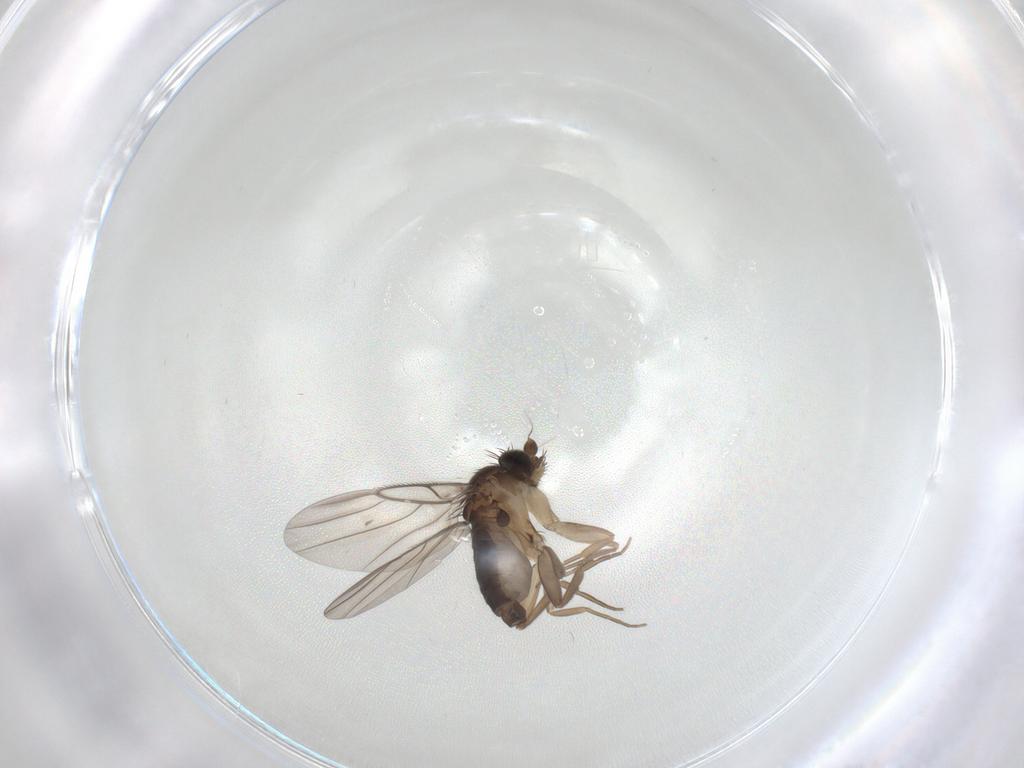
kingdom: Animalia
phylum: Arthropoda
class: Insecta
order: Diptera
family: Phoridae
